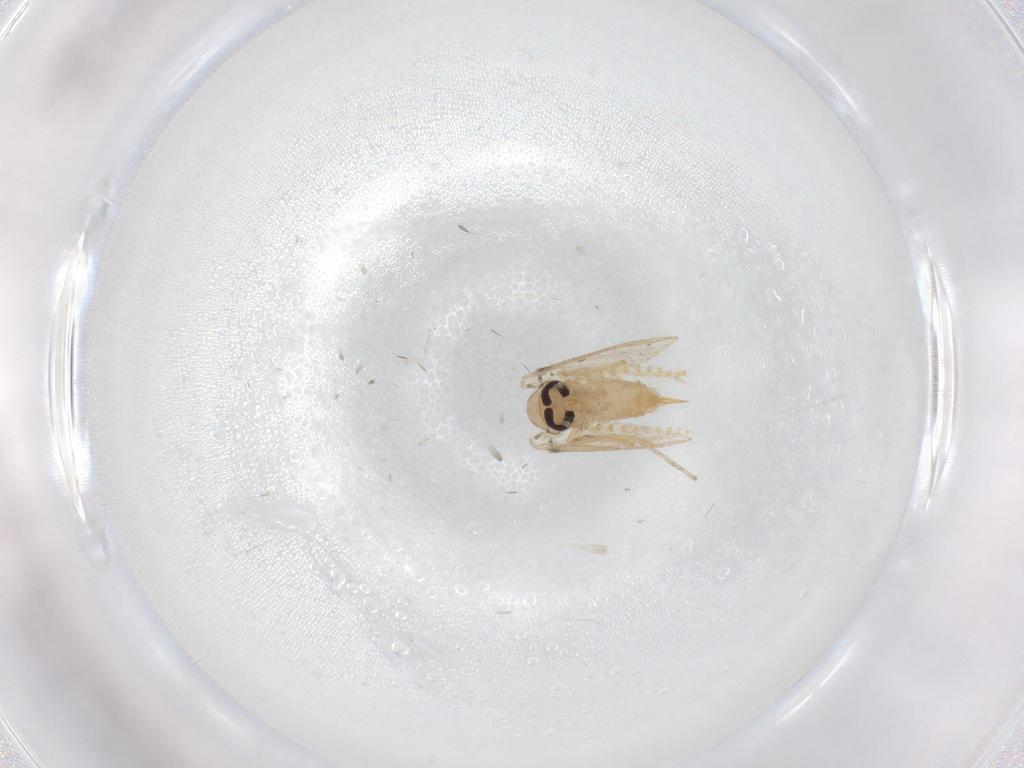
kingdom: Animalia
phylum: Arthropoda
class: Insecta
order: Diptera
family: Psychodidae
